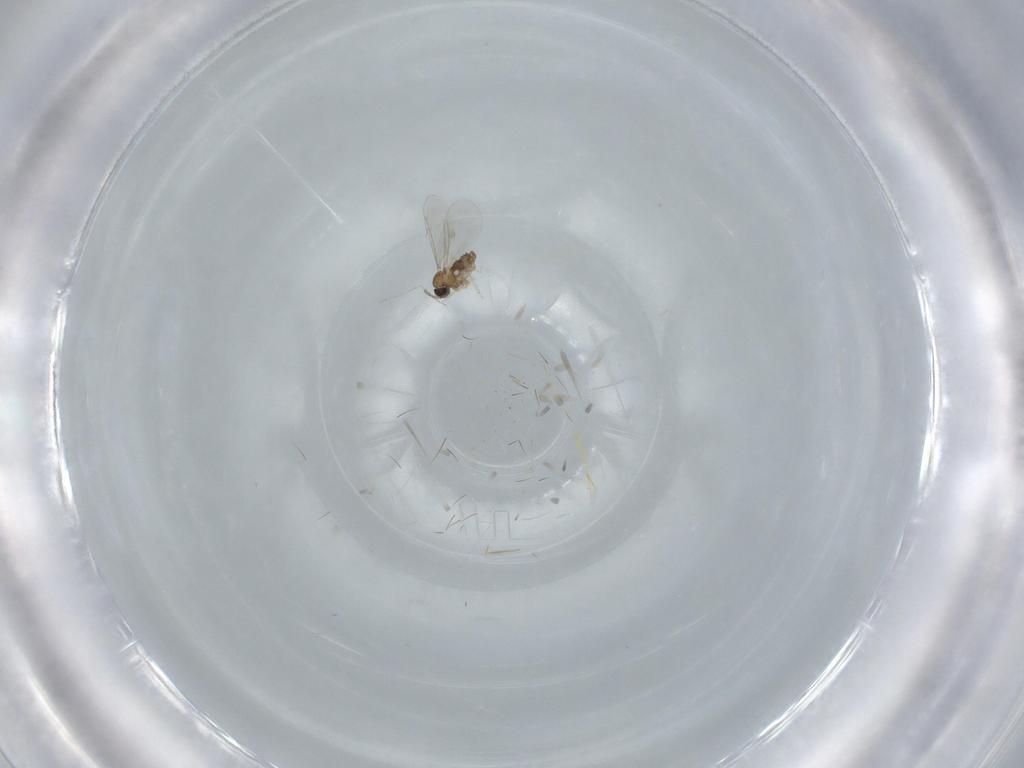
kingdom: Animalia
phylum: Arthropoda
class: Insecta
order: Diptera
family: Cecidomyiidae
